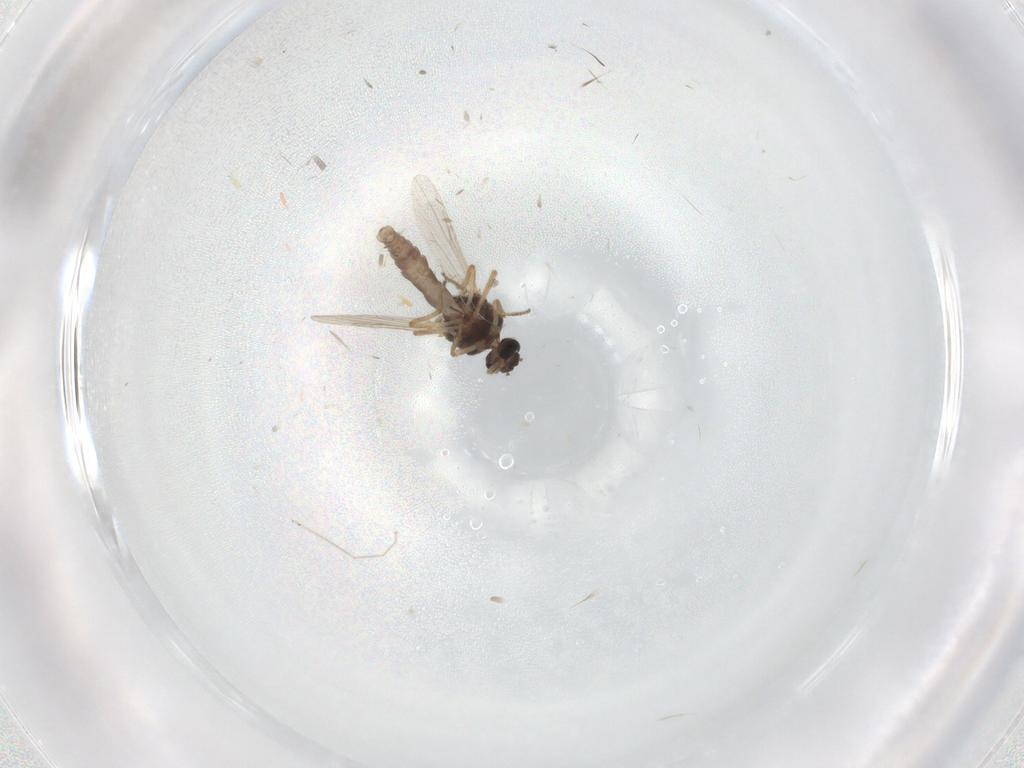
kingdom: Animalia
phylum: Arthropoda
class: Insecta
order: Diptera
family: Ceratopogonidae
